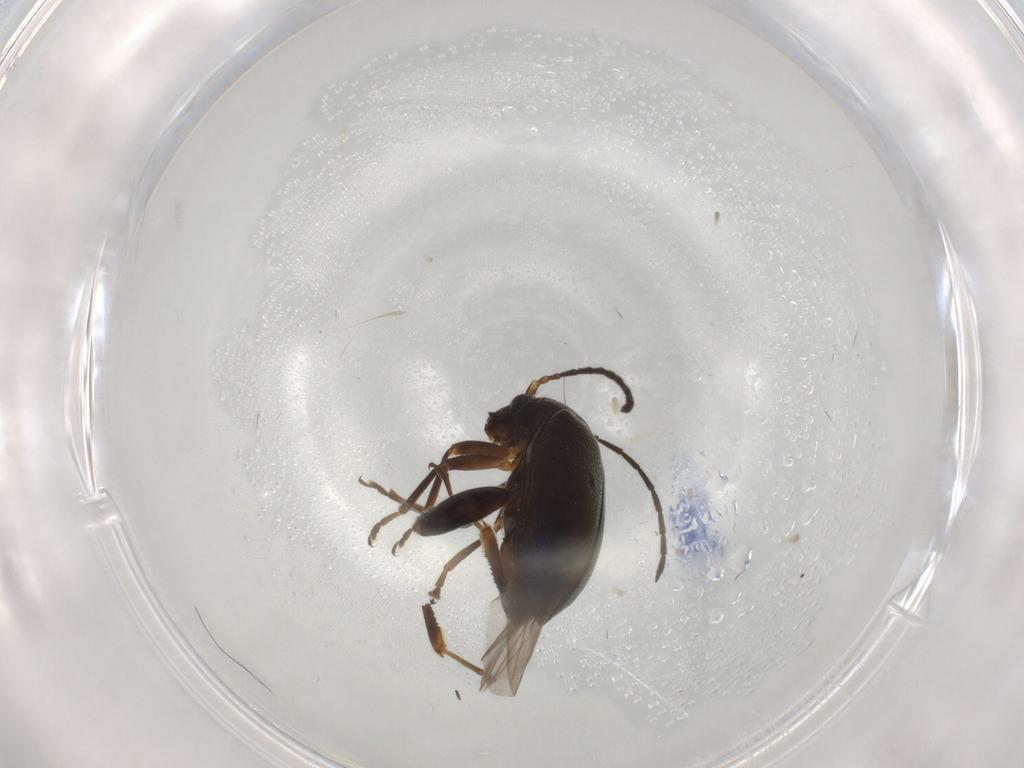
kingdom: Animalia
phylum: Arthropoda
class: Insecta
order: Coleoptera
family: Chrysomelidae
